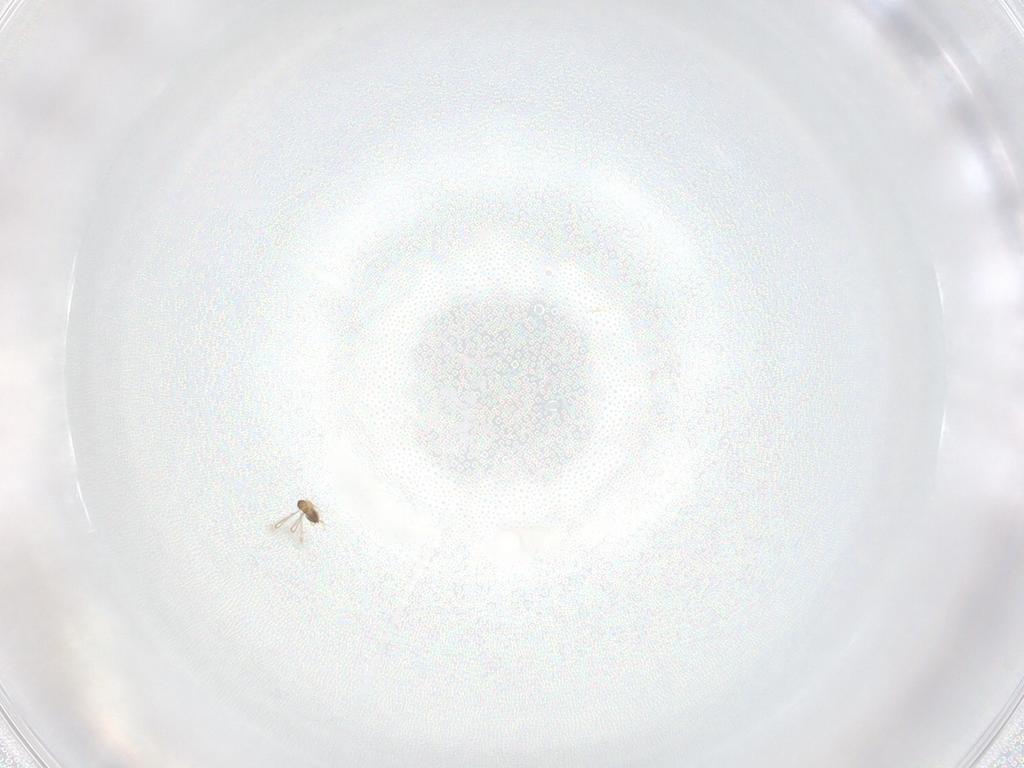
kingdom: Animalia
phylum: Arthropoda
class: Insecta
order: Hymenoptera
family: Mymaridae
